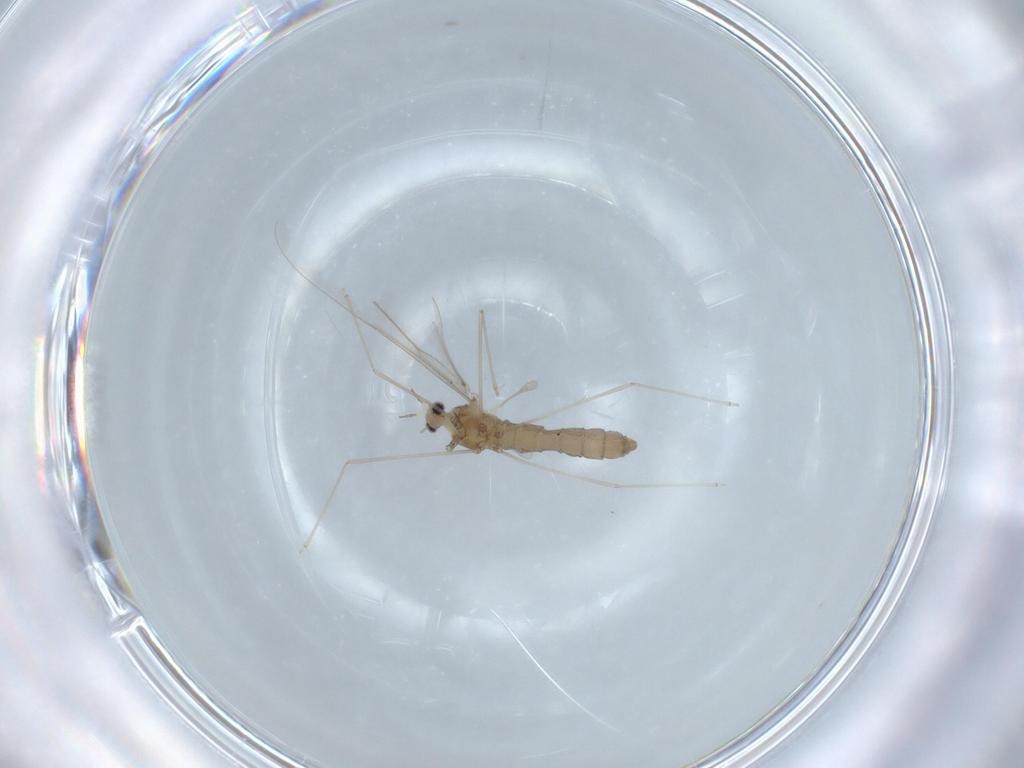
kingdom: Animalia
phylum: Arthropoda
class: Insecta
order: Diptera
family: Cecidomyiidae
